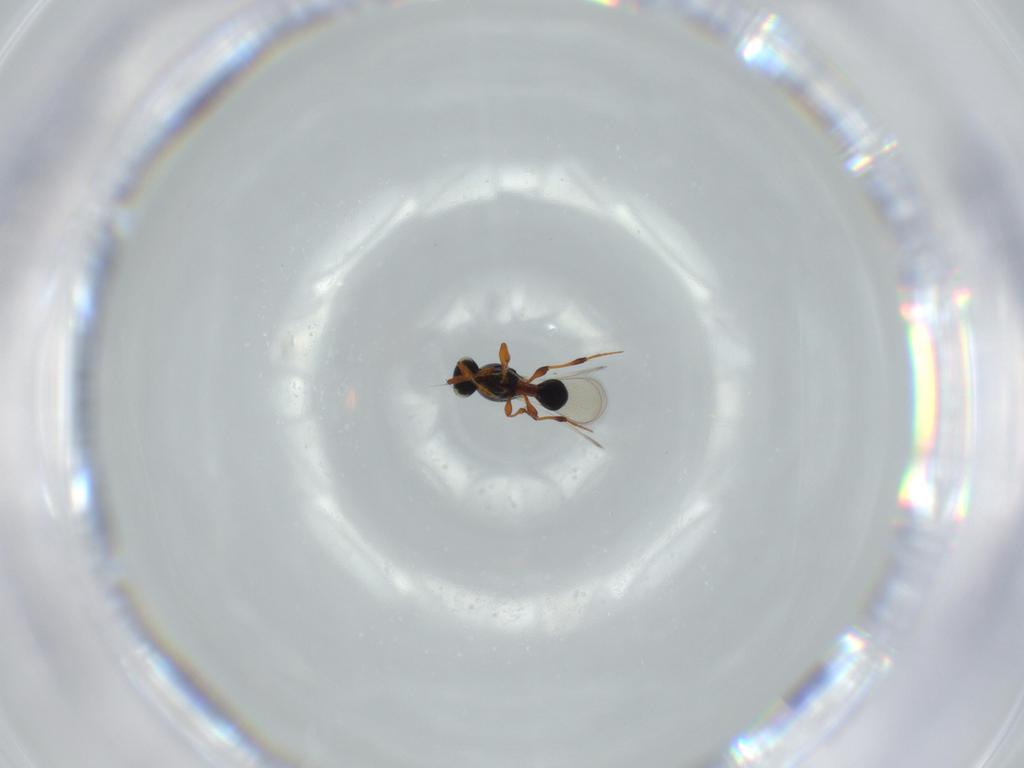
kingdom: Animalia
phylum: Arthropoda
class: Insecta
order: Hymenoptera
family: Platygastridae
